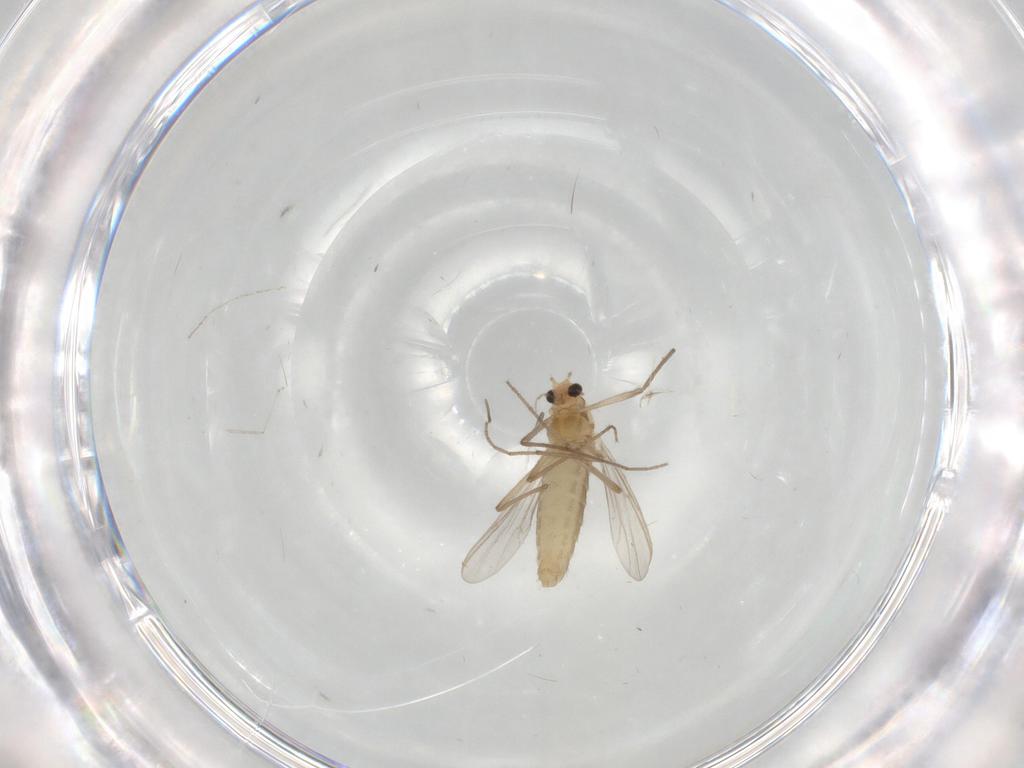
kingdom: Animalia
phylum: Arthropoda
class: Insecta
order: Diptera
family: Chironomidae
